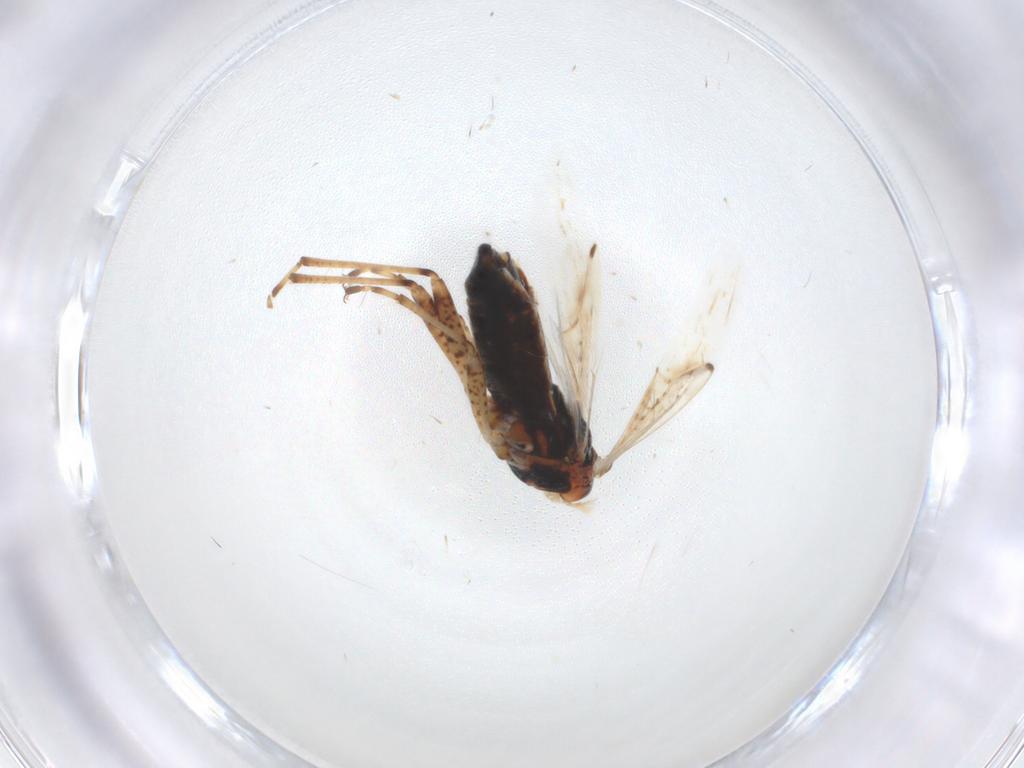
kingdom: Animalia
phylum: Arthropoda
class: Insecta
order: Hemiptera
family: Lygaeidae
